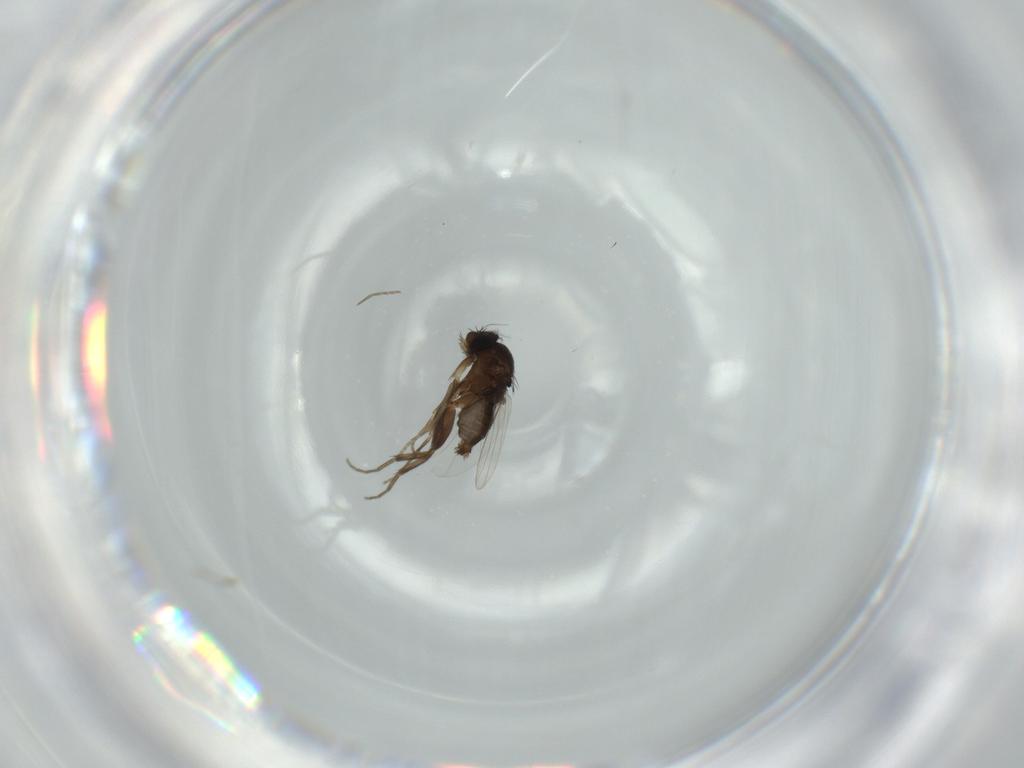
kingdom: Animalia
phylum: Arthropoda
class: Insecta
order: Diptera
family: Phoridae
